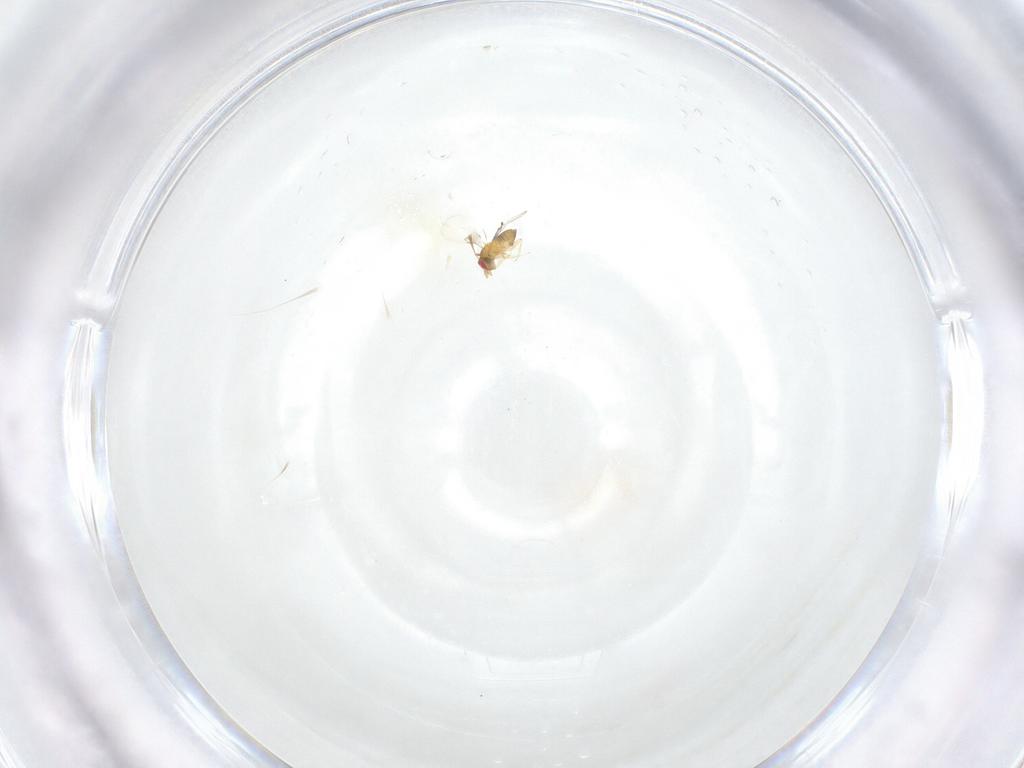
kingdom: Animalia
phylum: Arthropoda
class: Insecta
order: Hymenoptera
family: Trichogrammatidae
